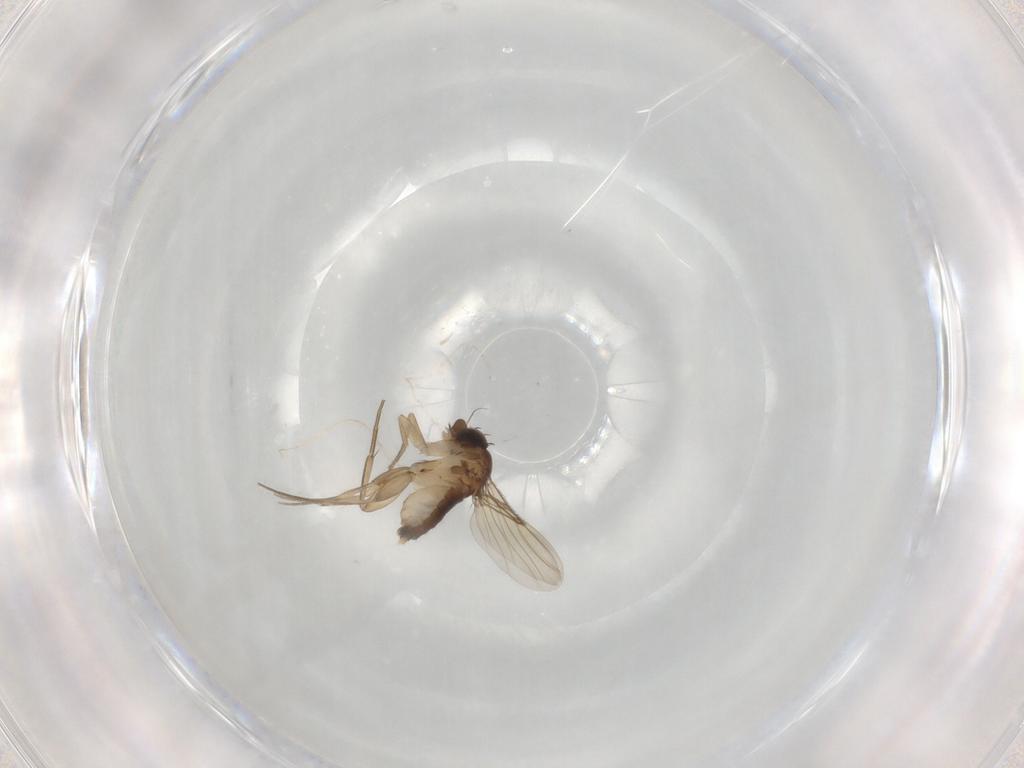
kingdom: Animalia
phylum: Arthropoda
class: Insecta
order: Diptera
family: Phoridae
